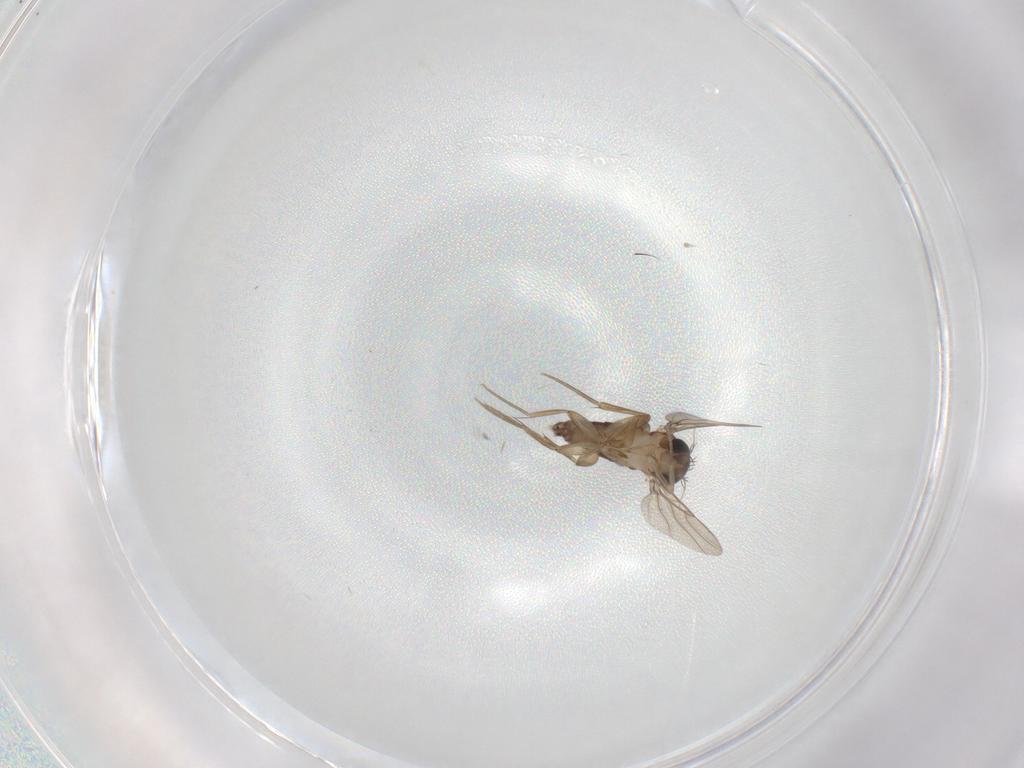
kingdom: Animalia
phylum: Arthropoda
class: Insecta
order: Diptera
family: Phoridae
